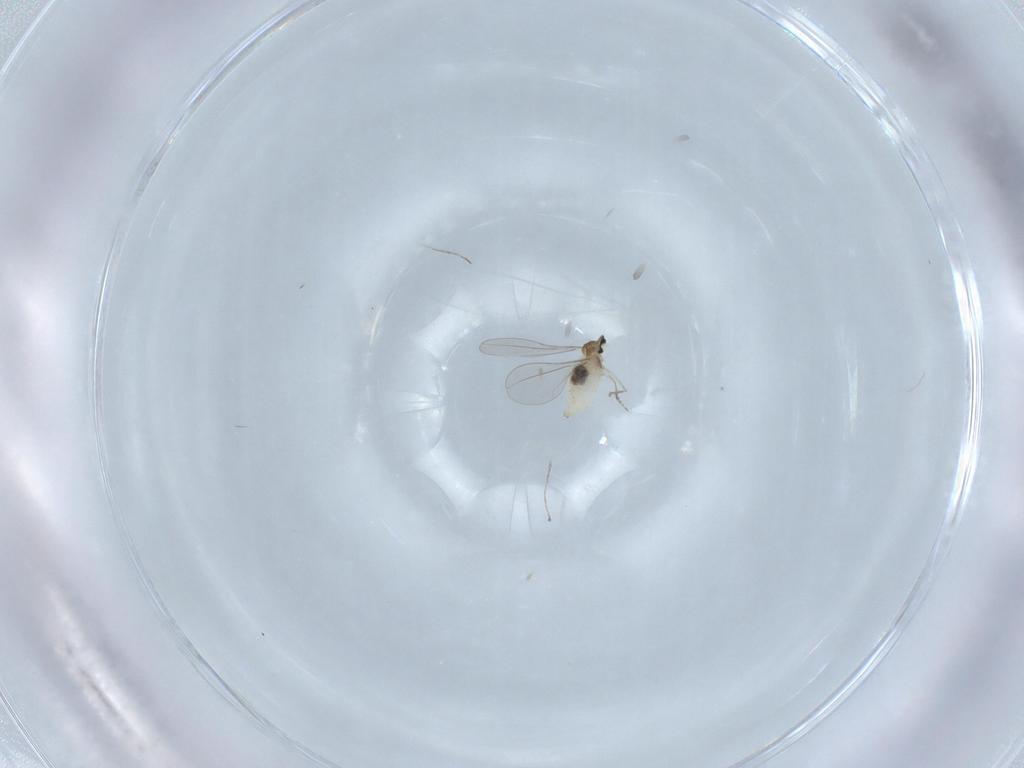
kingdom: Animalia
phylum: Arthropoda
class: Insecta
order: Diptera
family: Cecidomyiidae
